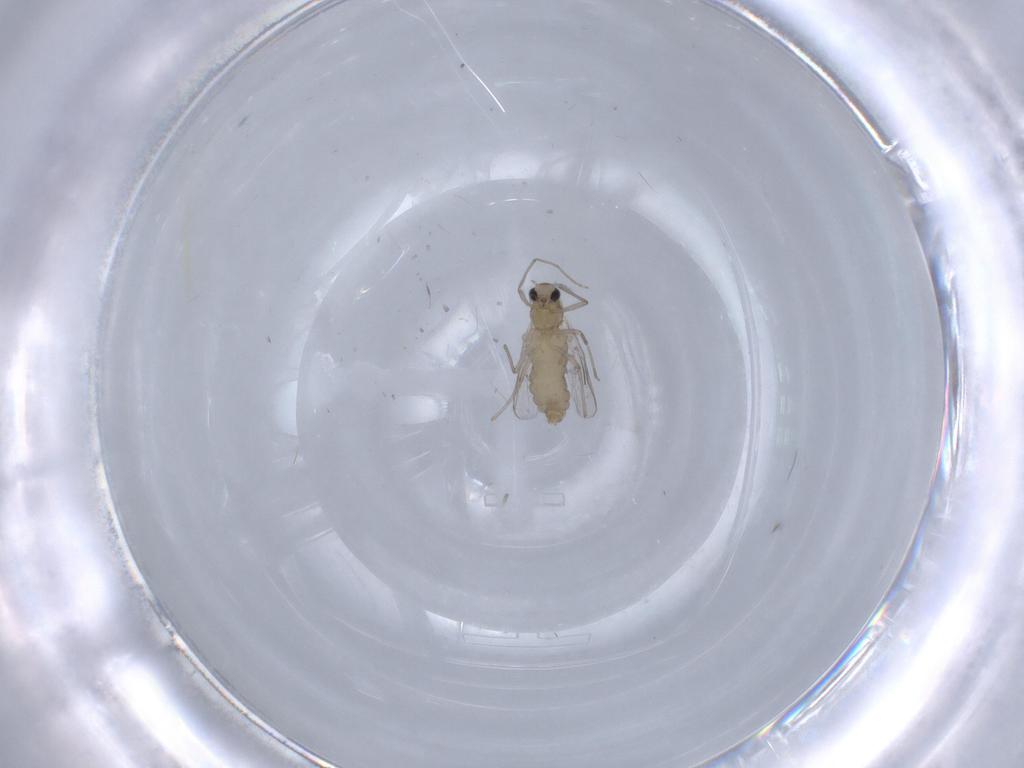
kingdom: Animalia
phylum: Arthropoda
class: Insecta
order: Diptera
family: Chironomidae
